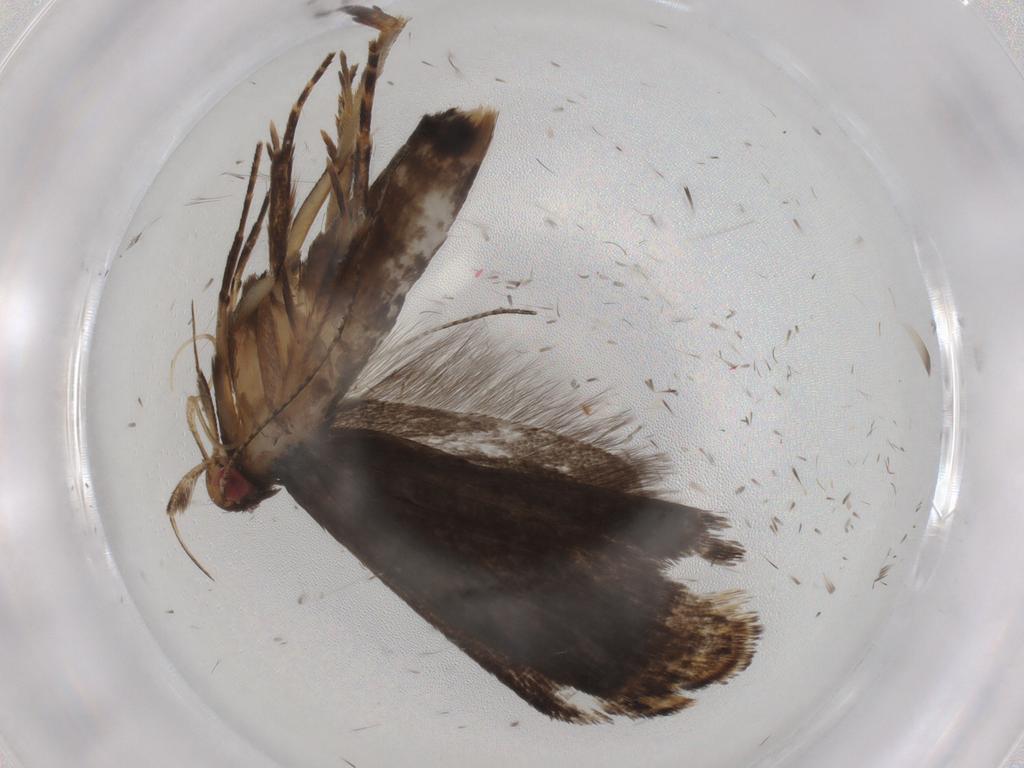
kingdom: Animalia
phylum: Arthropoda
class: Insecta
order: Lepidoptera
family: Gelechiidae
